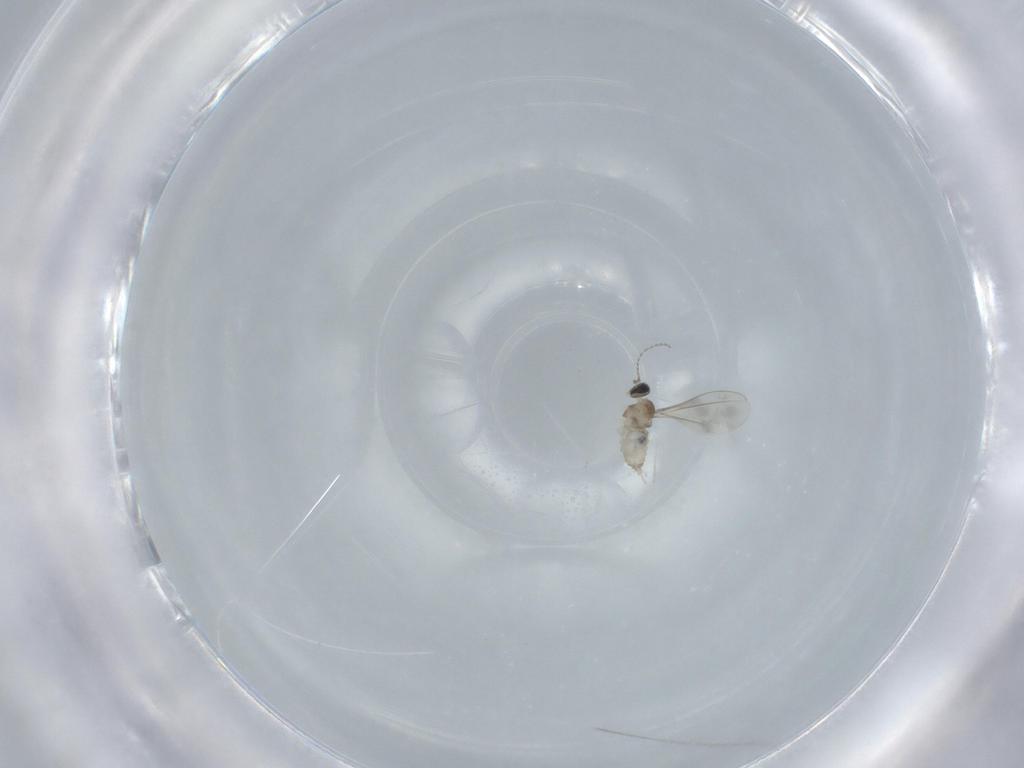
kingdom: Animalia
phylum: Arthropoda
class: Insecta
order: Diptera
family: Cecidomyiidae
